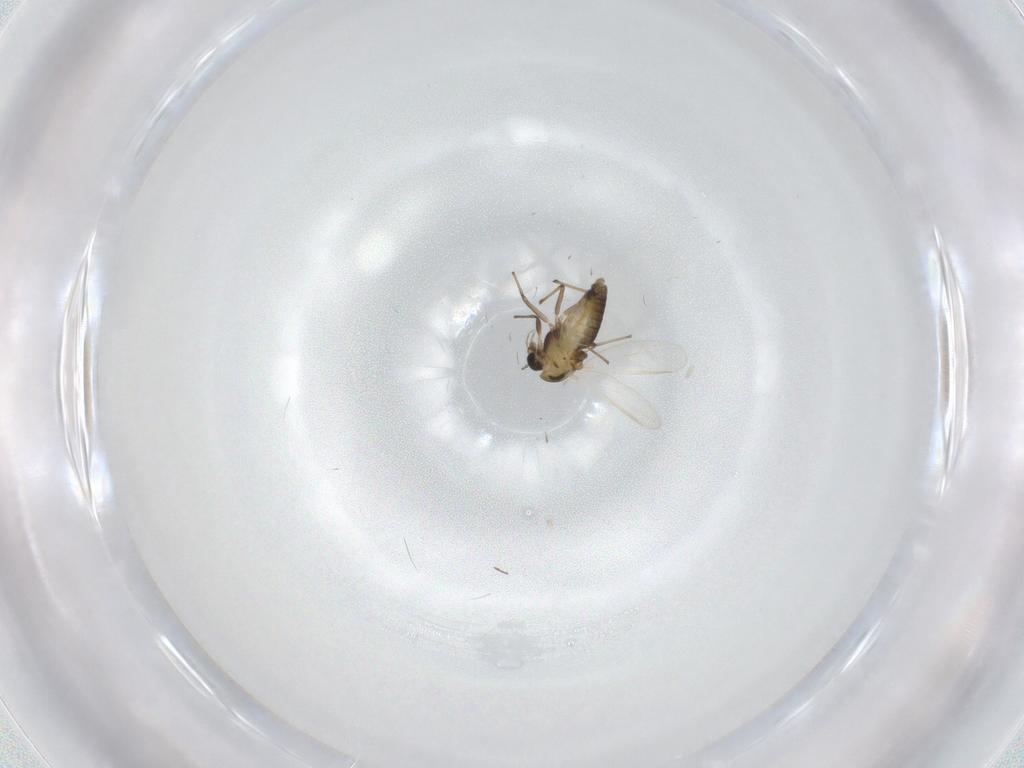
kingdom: Animalia
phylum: Arthropoda
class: Insecta
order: Diptera
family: Chironomidae
